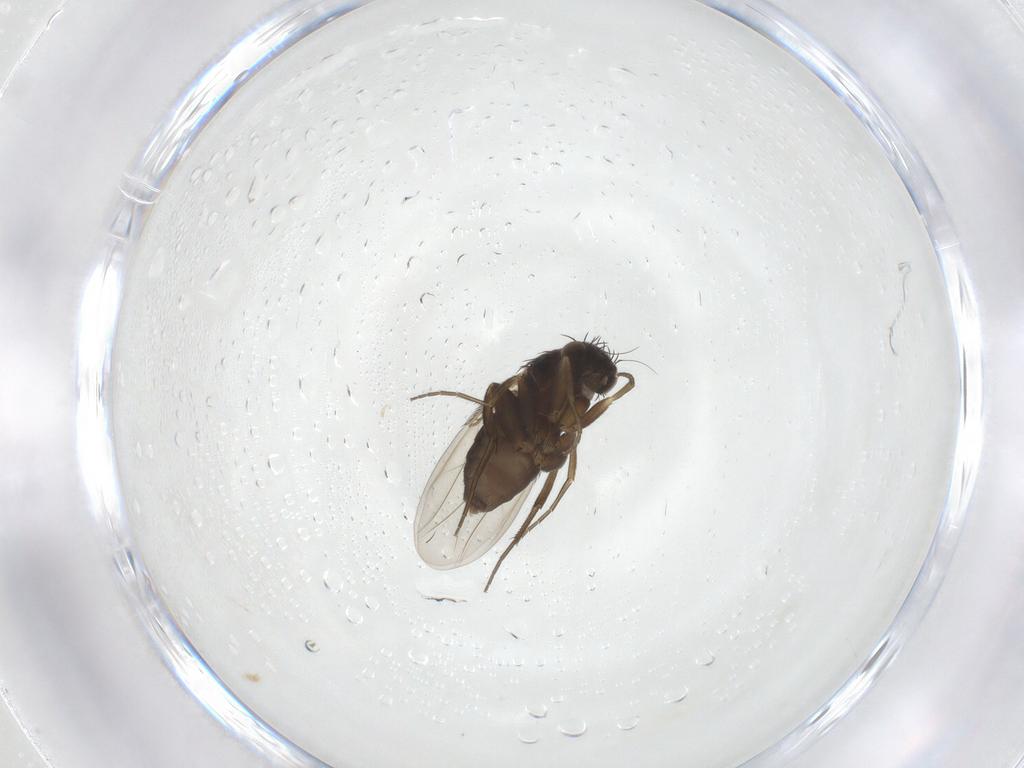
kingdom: Animalia
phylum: Arthropoda
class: Insecta
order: Diptera
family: Phoridae
